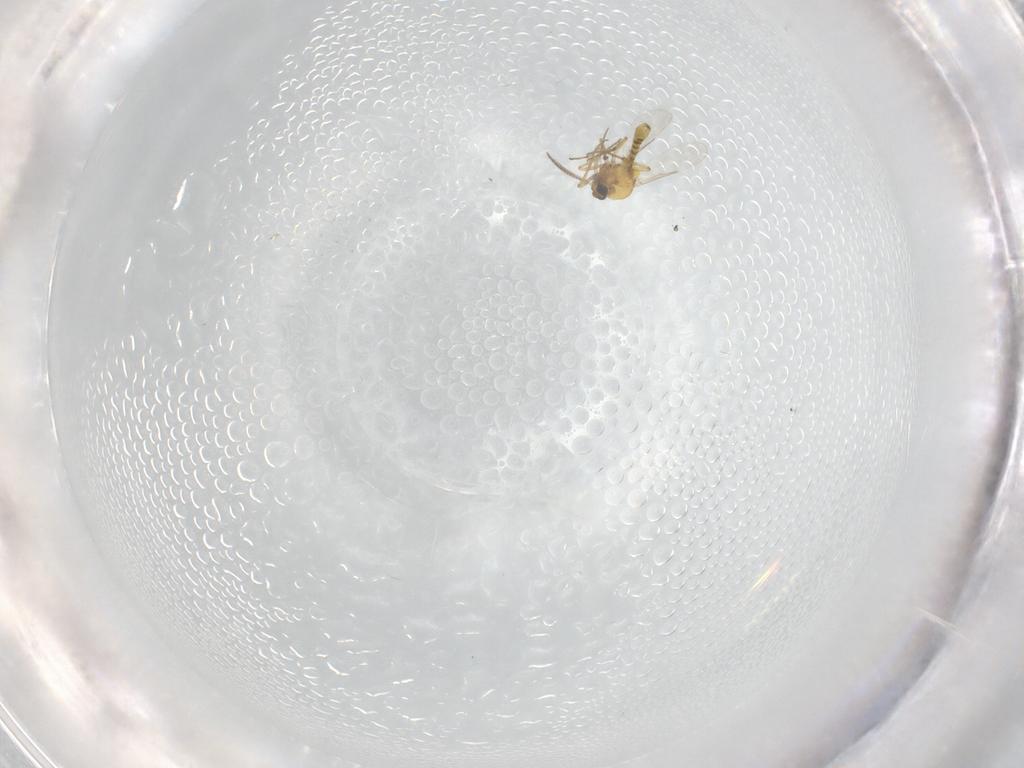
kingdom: Animalia
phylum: Arthropoda
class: Insecta
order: Diptera
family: Ceratopogonidae
